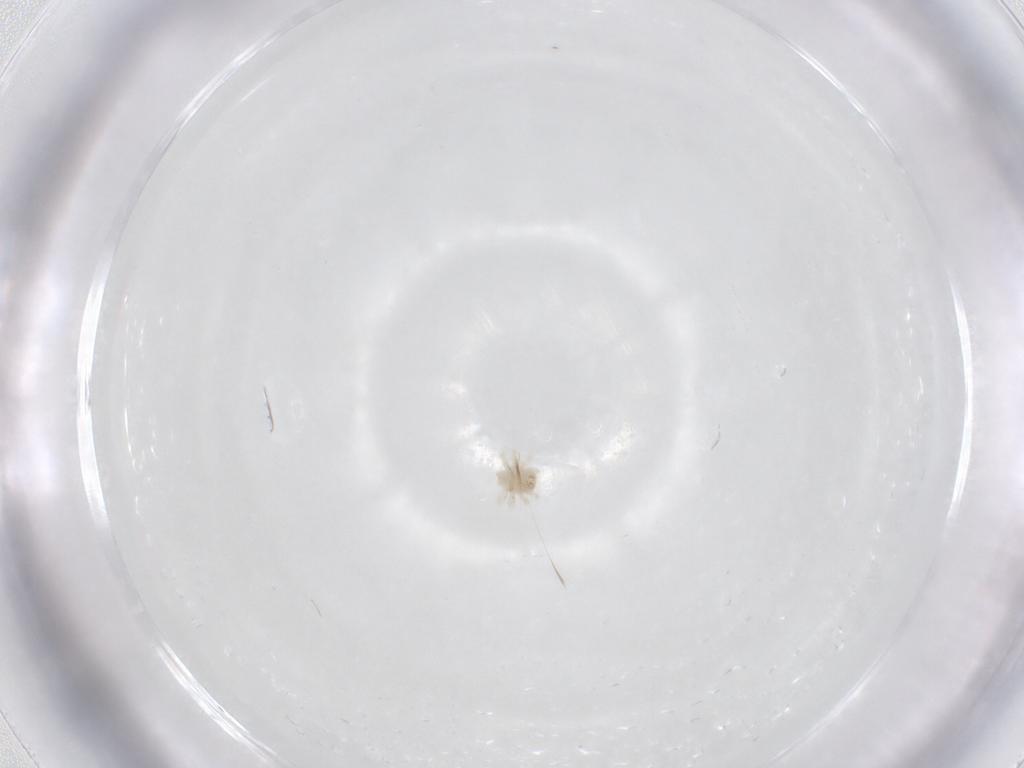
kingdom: Animalia
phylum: Arthropoda
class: Arachnida
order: Trombidiformes
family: Anystidae
